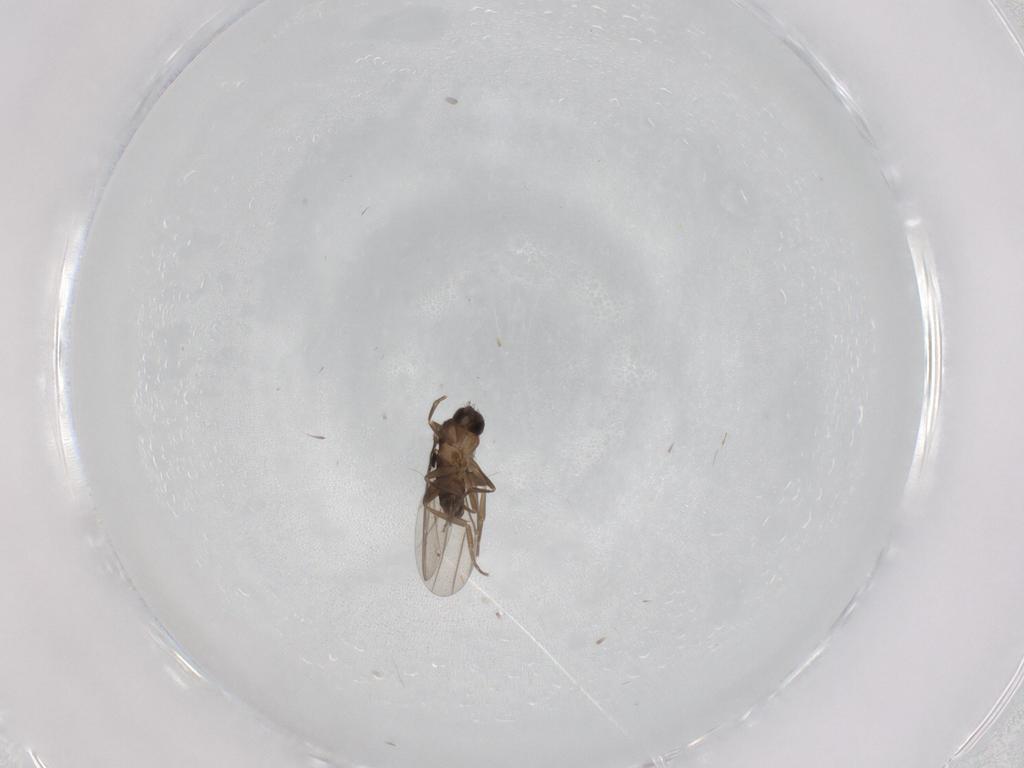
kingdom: Animalia
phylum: Arthropoda
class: Insecta
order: Diptera
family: Phoridae
